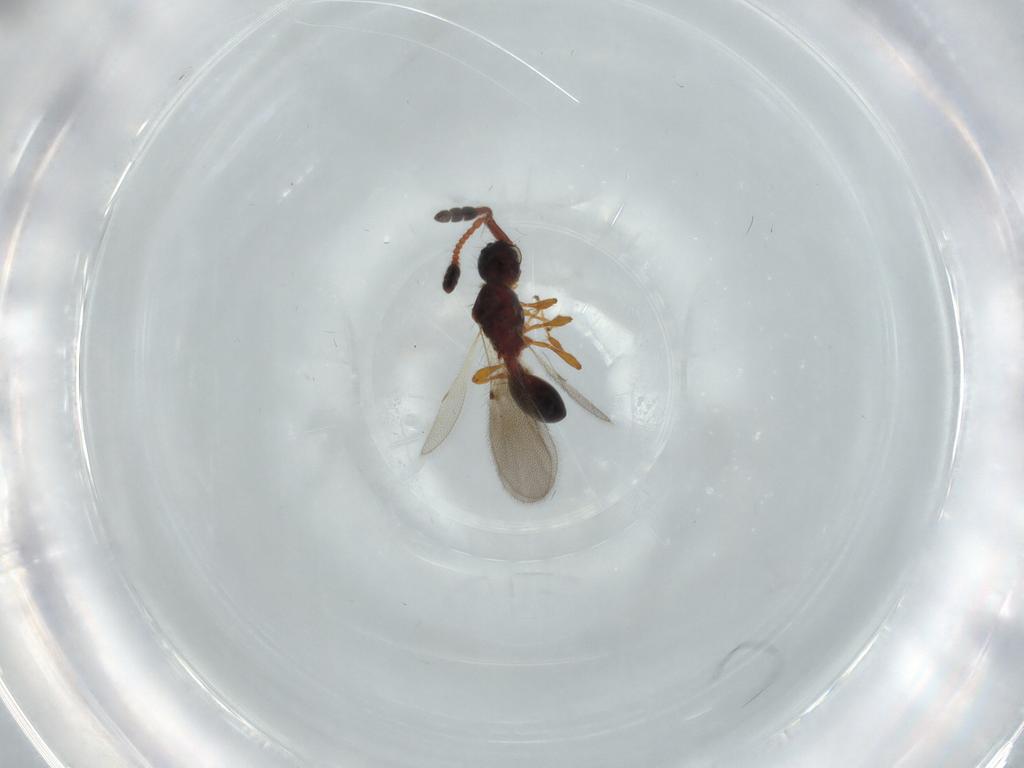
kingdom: Animalia
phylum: Arthropoda
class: Insecta
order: Hymenoptera
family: Diapriidae
